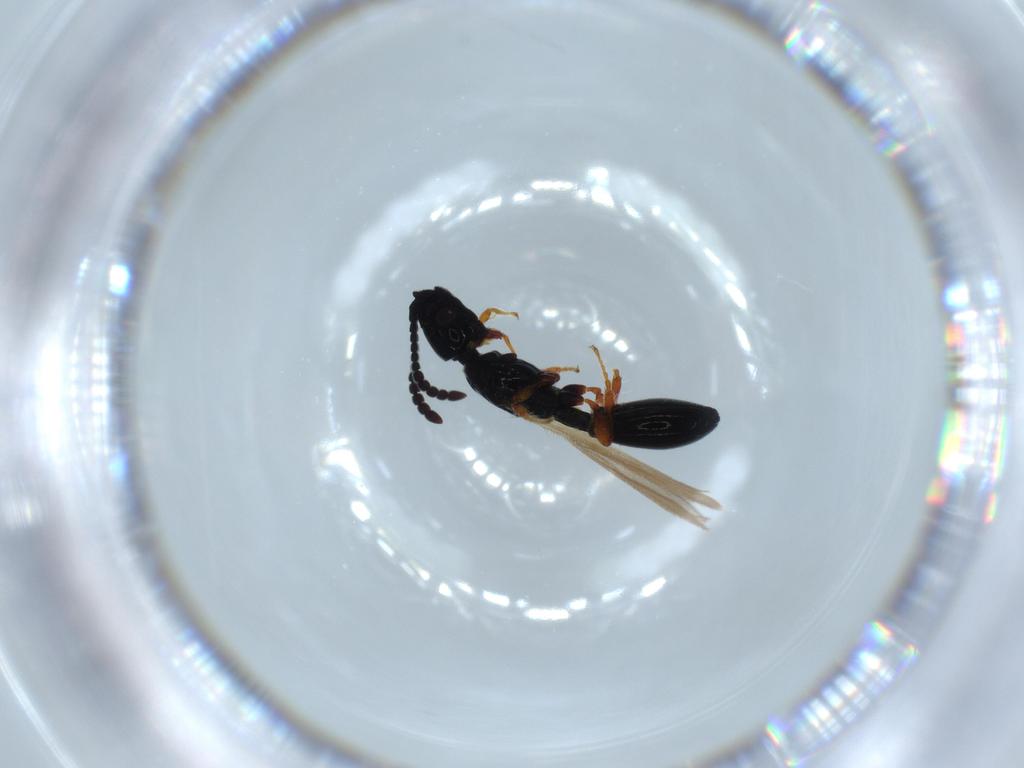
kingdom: Animalia
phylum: Arthropoda
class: Insecta
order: Hymenoptera
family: Diapriidae
